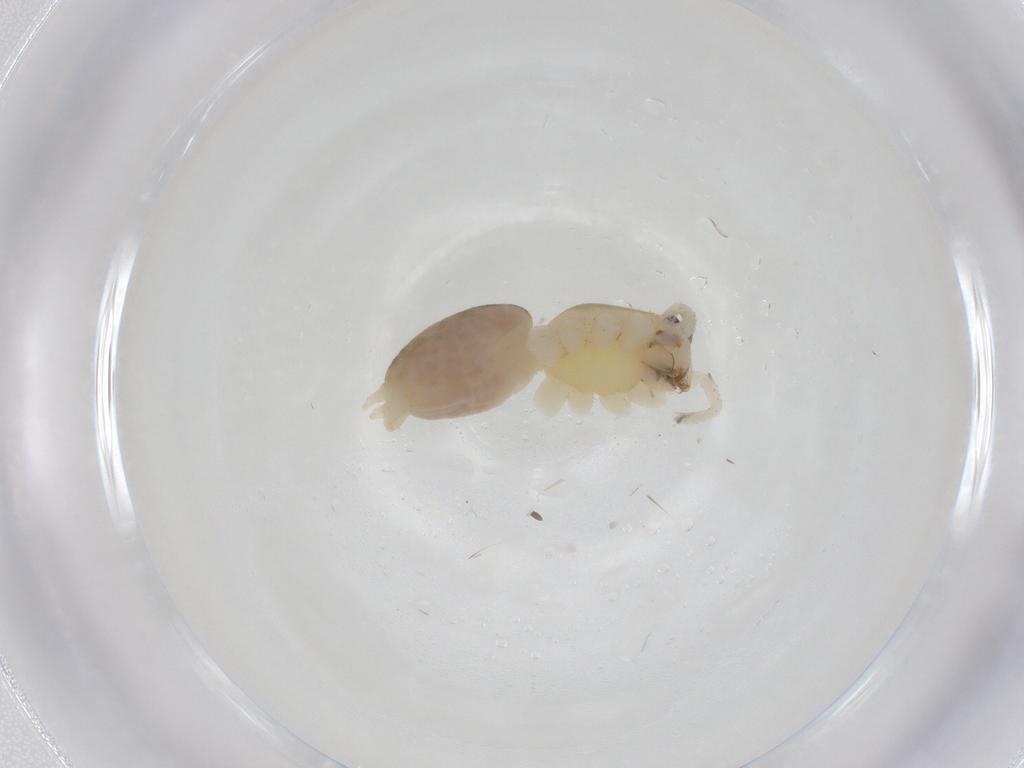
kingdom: Animalia
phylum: Arthropoda
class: Arachnida
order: Araneae
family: Anyphaenidae
